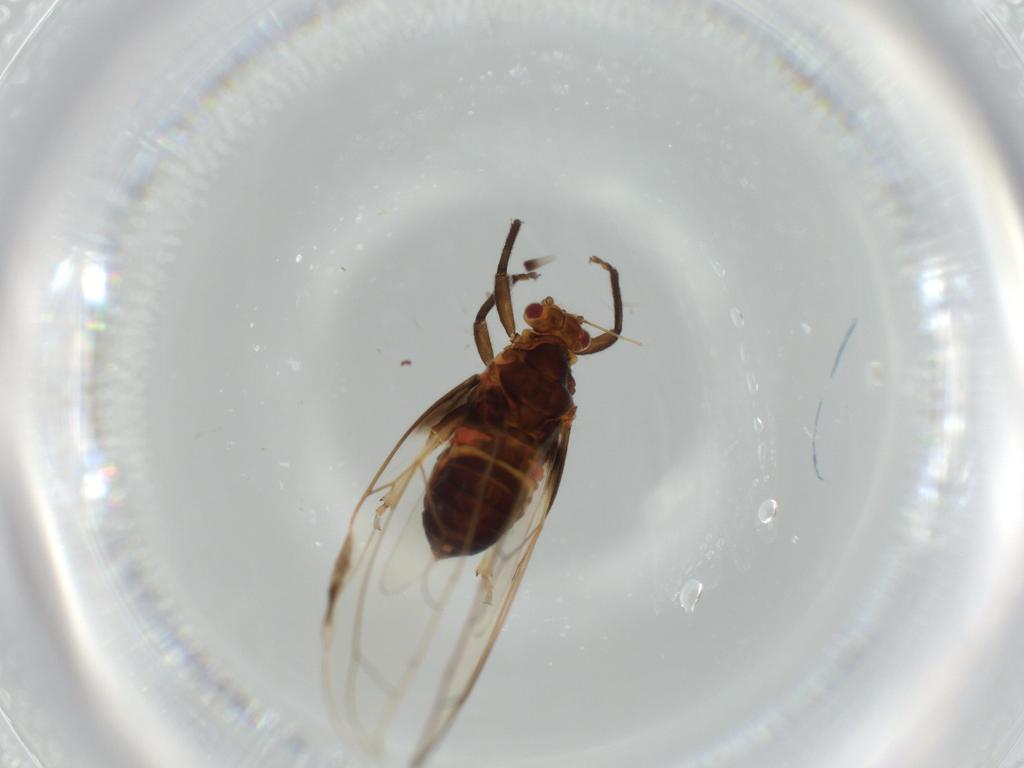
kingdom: Animalia
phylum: Arthropoda
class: Insecta
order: Hemiptera
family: Triozidae
